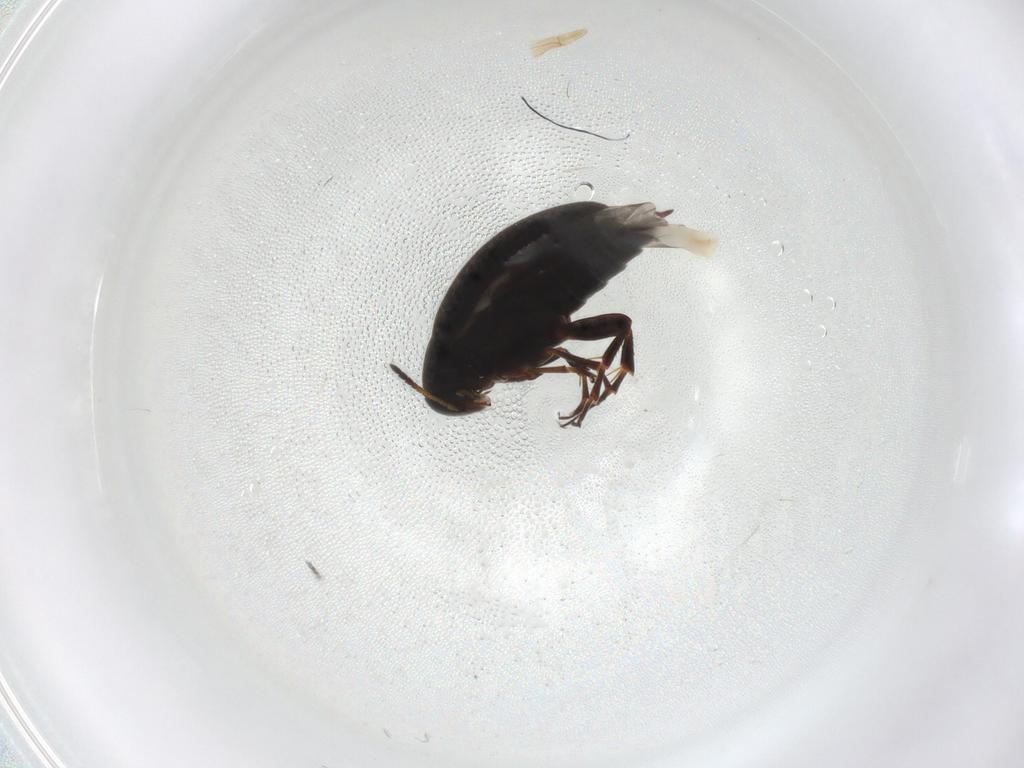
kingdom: Animalia
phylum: Arthropoda
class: Insecta
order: Coleoptera
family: Scraptiidae
